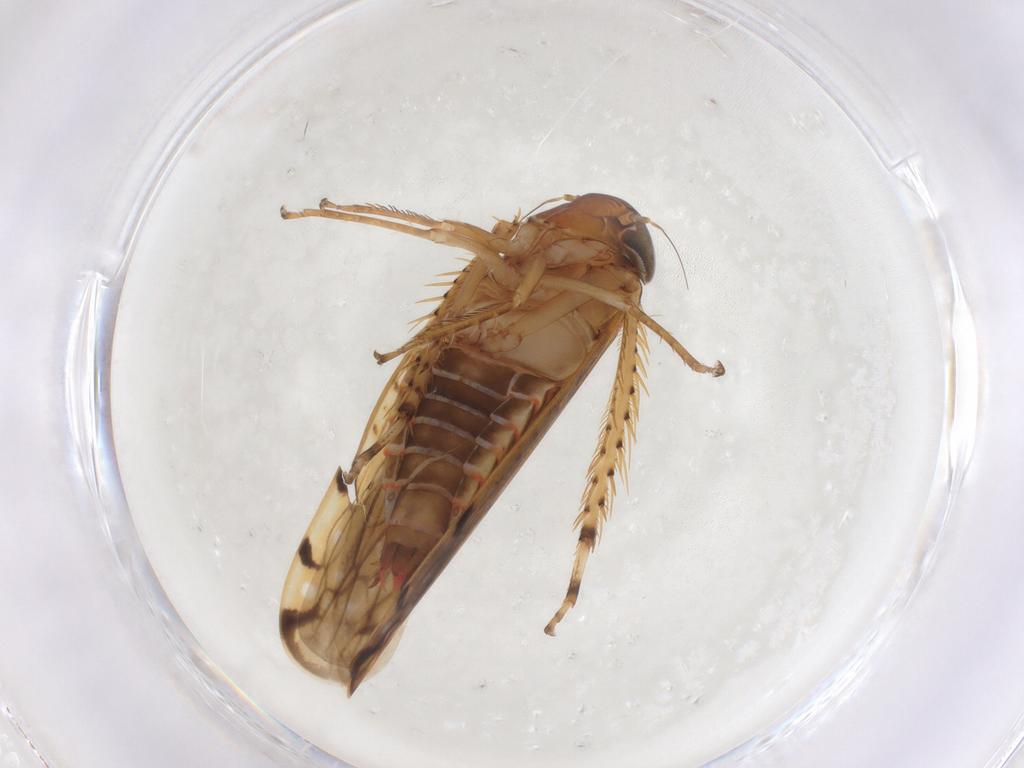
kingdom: Animalia
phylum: Arthropoda
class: Insecta
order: Hemiptera
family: Cicadellidae
